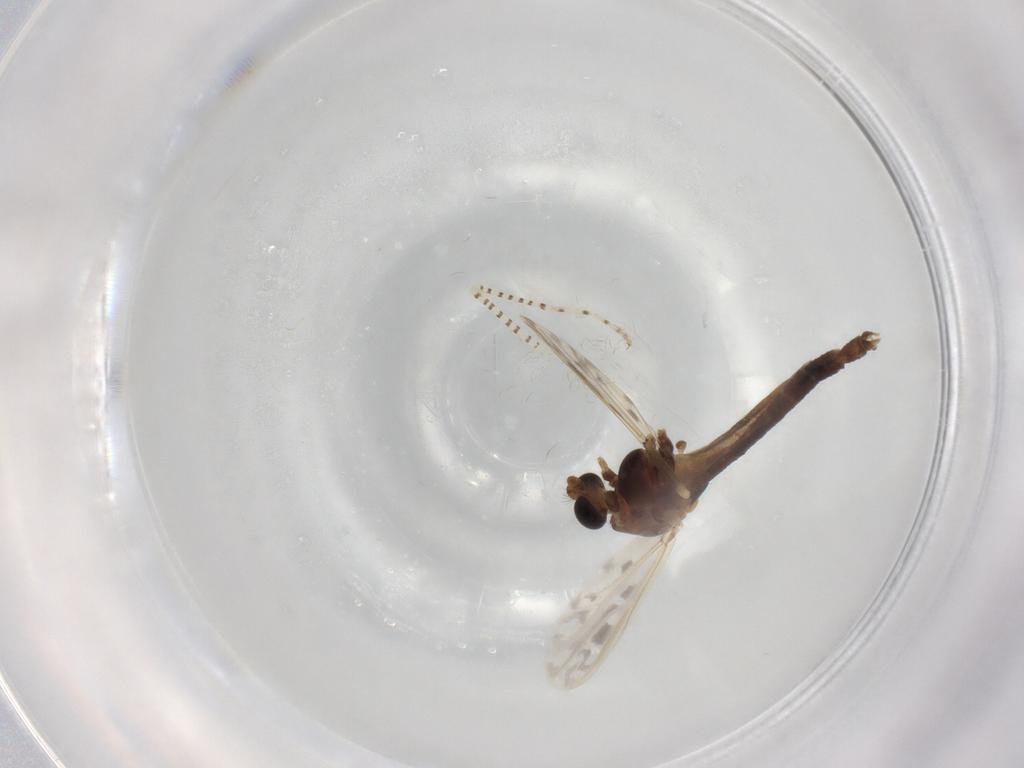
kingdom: Animalia
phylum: Arthropoda
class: Insecta
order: Diptera
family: Chironomidae
